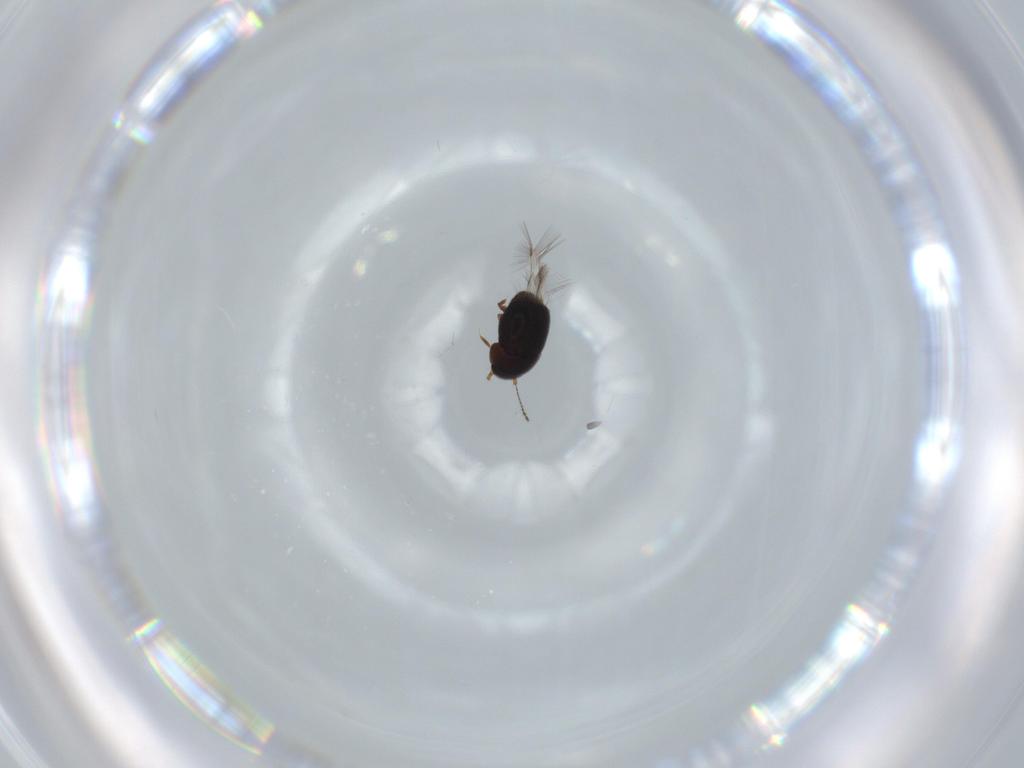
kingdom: Animalia
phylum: Arthropoda
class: Insecta
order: Coleoptera
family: Ptiliidae
